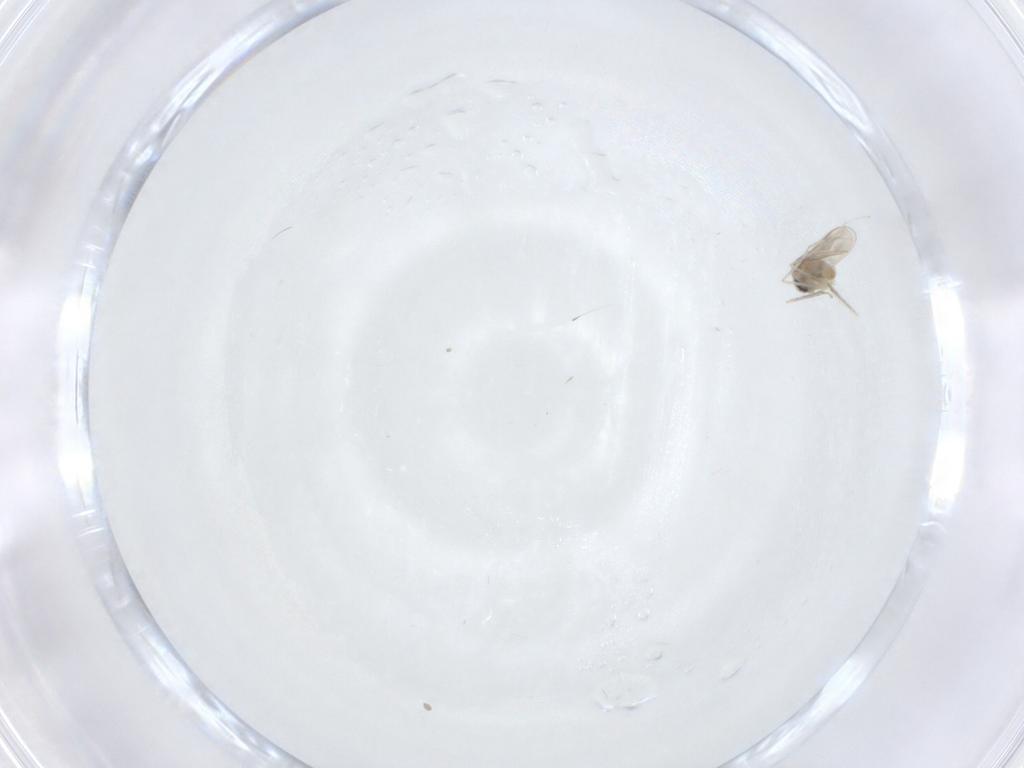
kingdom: Animalia
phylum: Arthropoda
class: Insecta
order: Diptera
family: Cecidomyiidae
